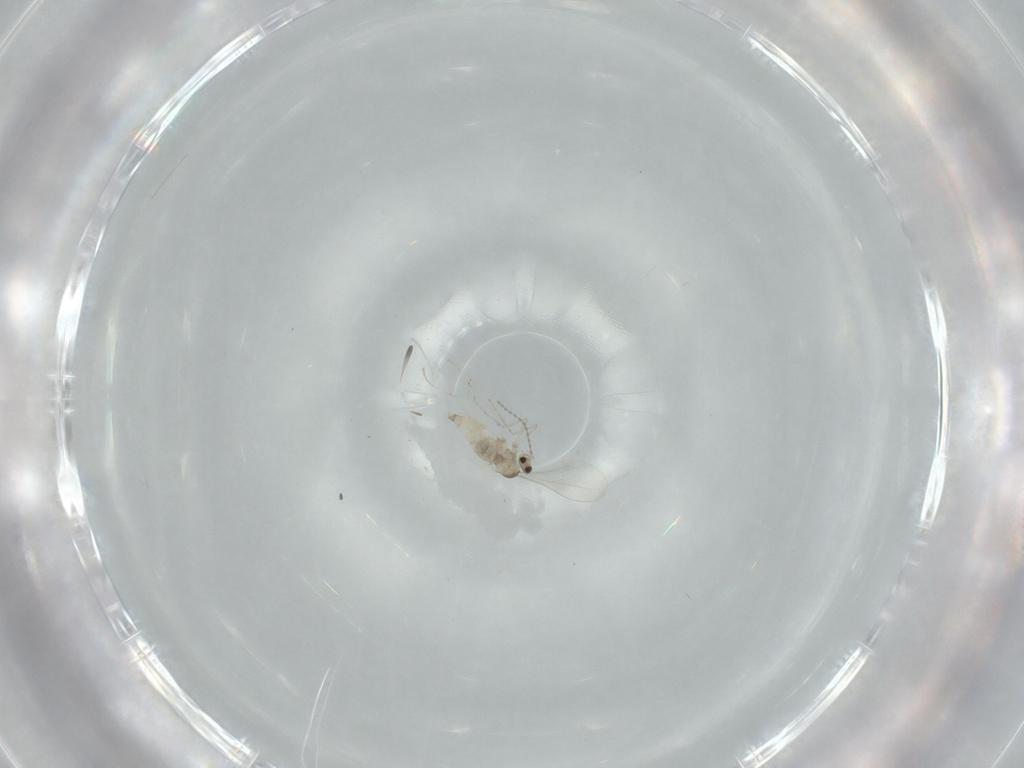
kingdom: Animalia
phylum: Arthropoda
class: Insecta
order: Diptera
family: Cecidomyiidae
